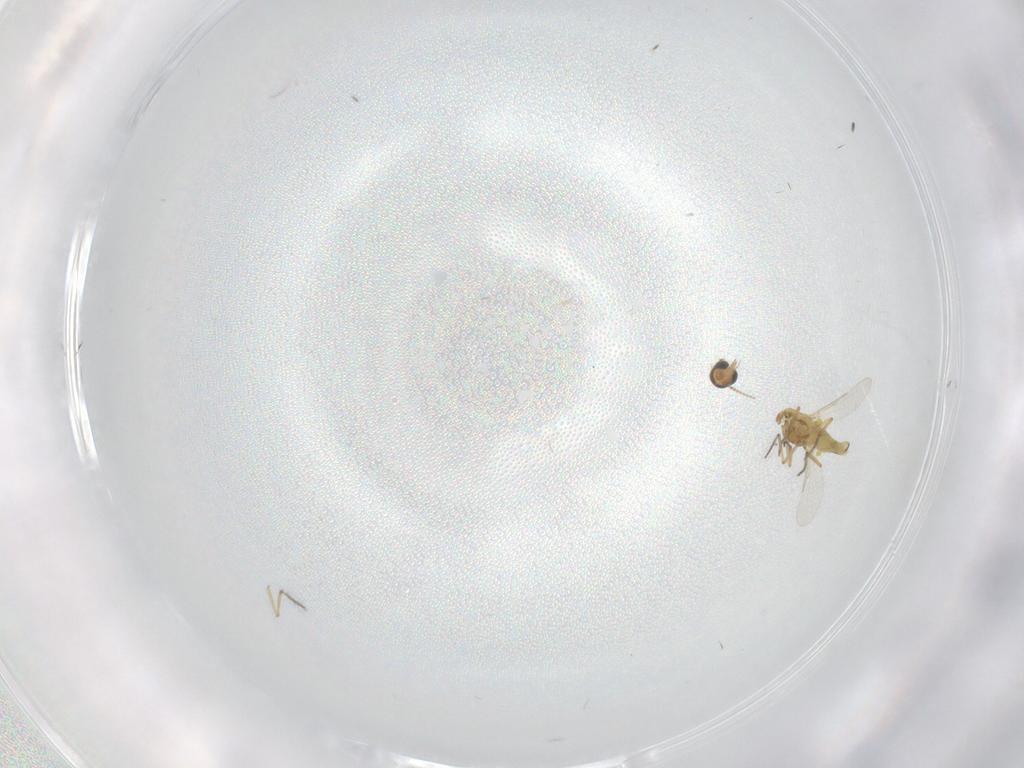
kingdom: Animalia
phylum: Arthropoda
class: Insecta
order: Diptera
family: Ceratopogonidae
